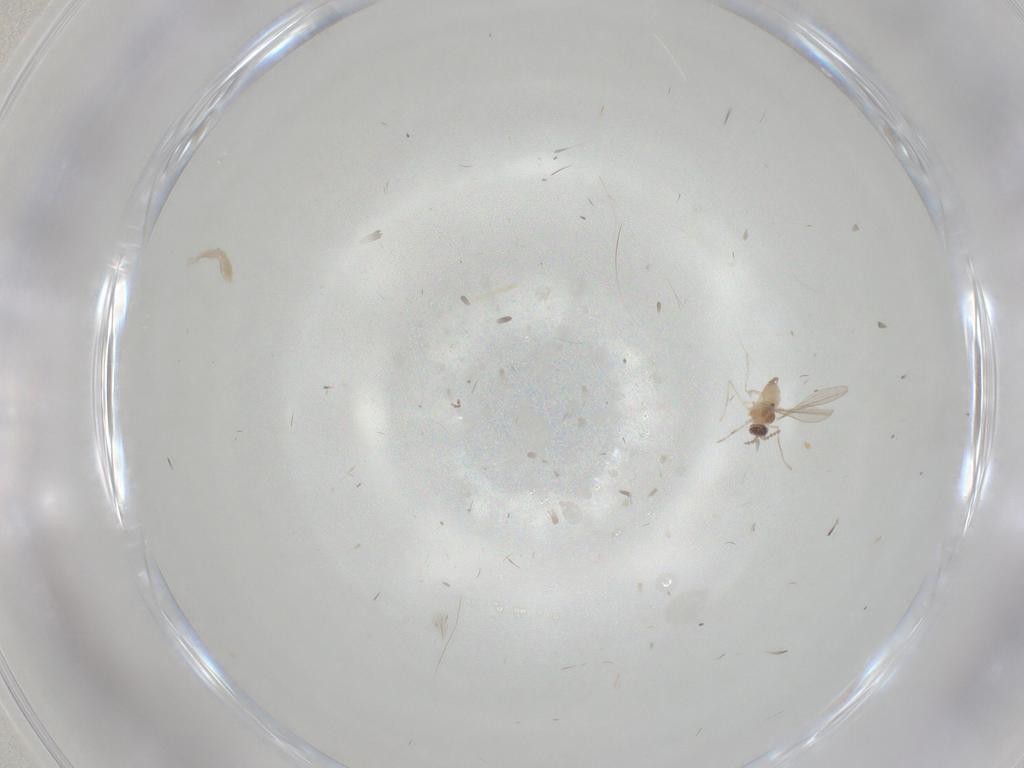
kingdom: Animalia
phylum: Arthropoda
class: Insecta
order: Diptera
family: Cecidomyiidae
